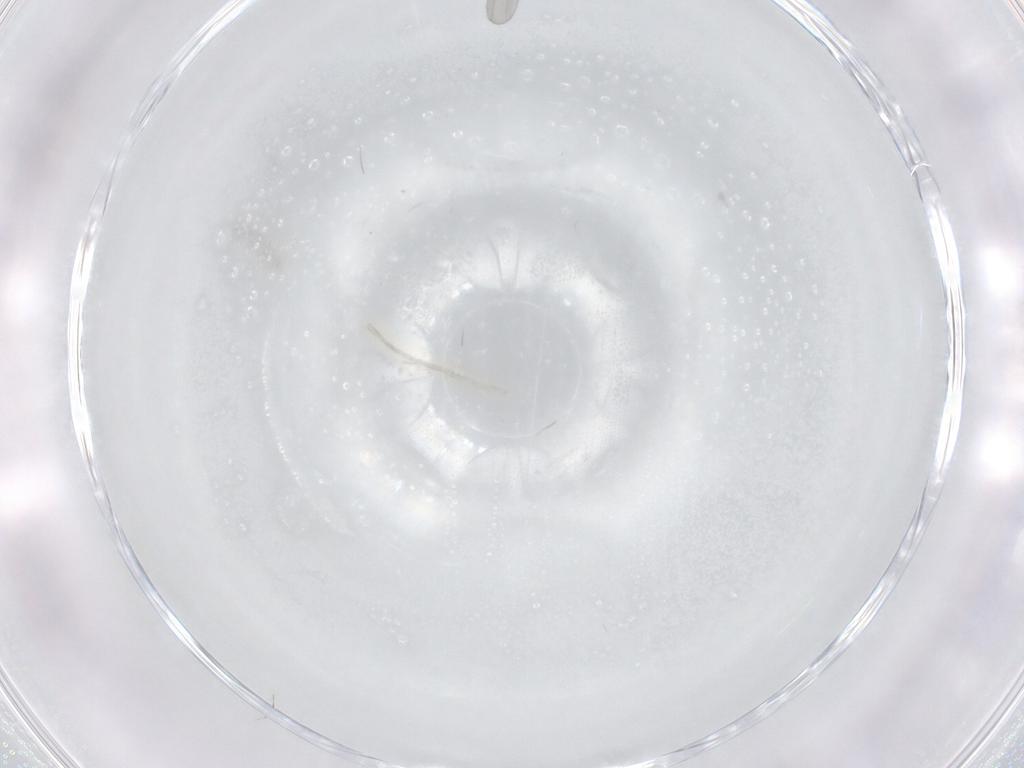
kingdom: Animalia
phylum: Arthropoda
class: Insecta
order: Diptera
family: Cecidomyiidae
